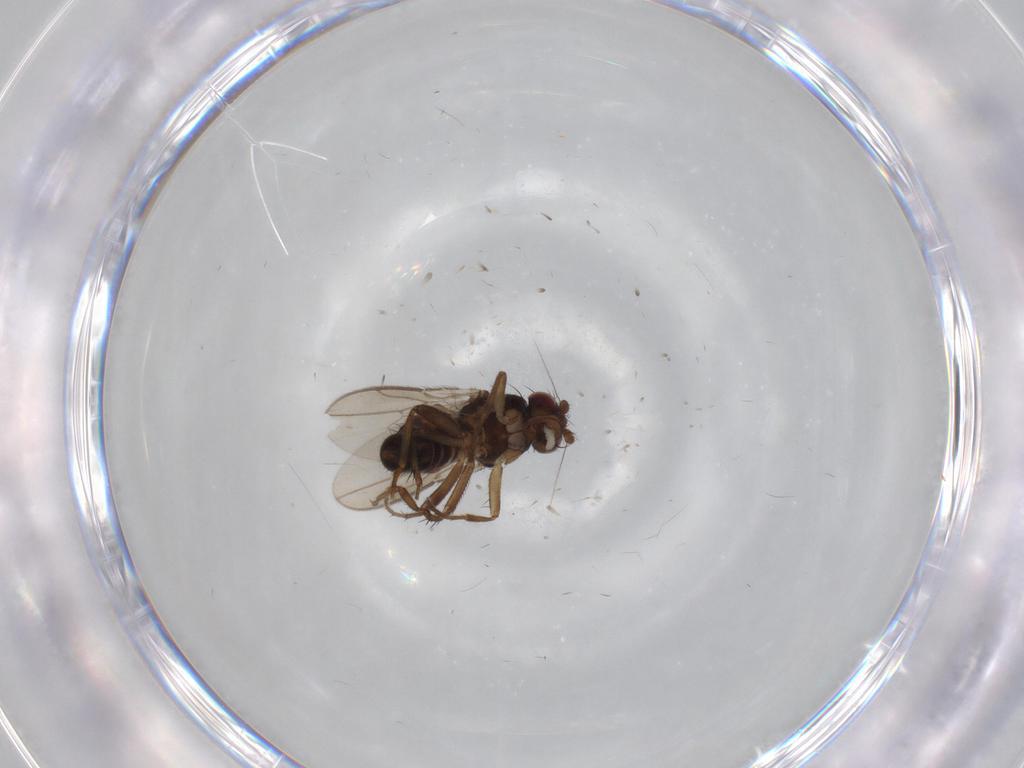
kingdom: Animalia
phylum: Arthropoda
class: Insecta
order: Diptera
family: Sphaeroceridae
